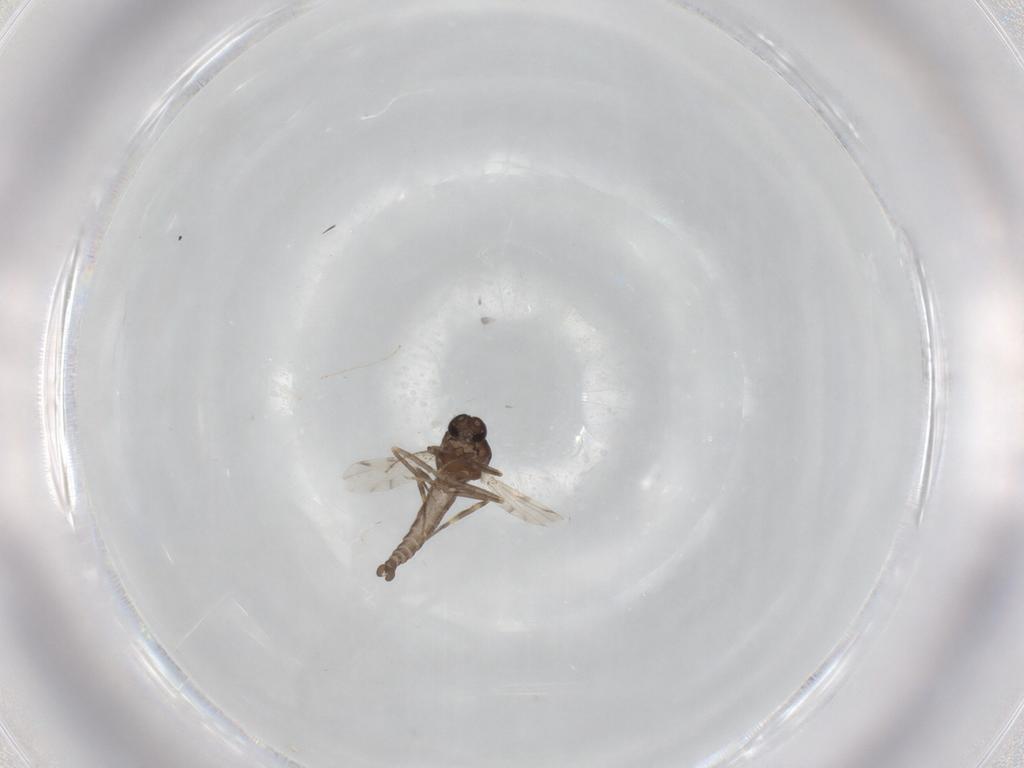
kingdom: Animalia
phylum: Arthropoda
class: Insecta
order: Diptera
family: Ceratopogonidae
